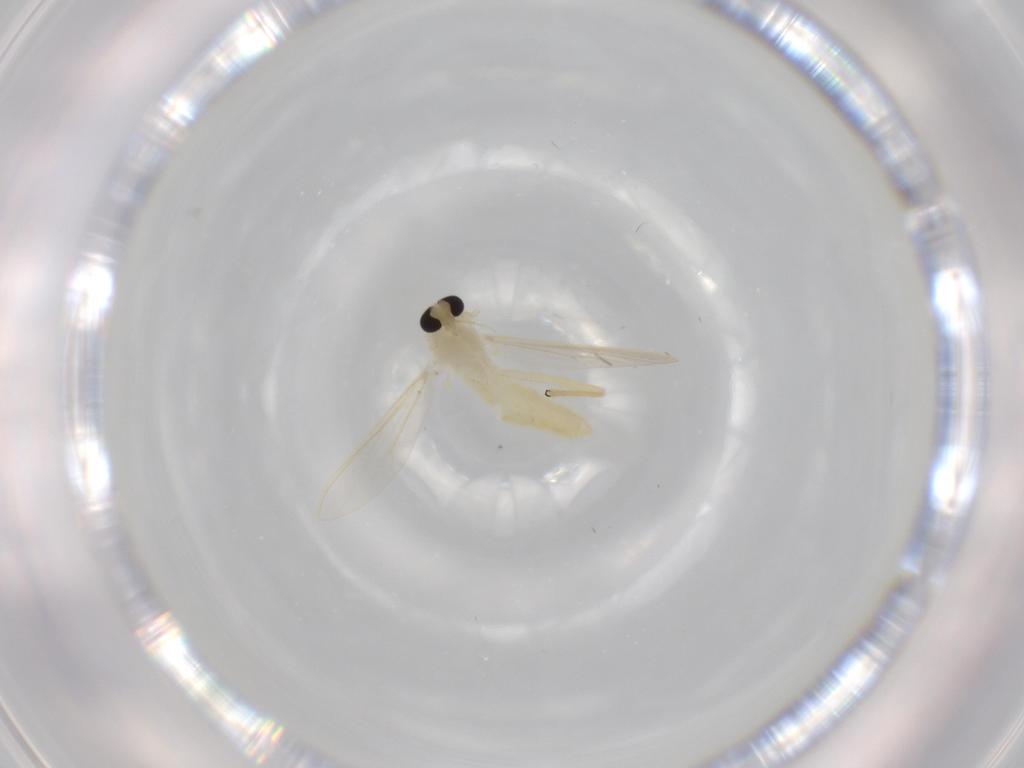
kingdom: Animalia
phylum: Arthropoda
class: Insecta
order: Diptera
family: Chironomidae
